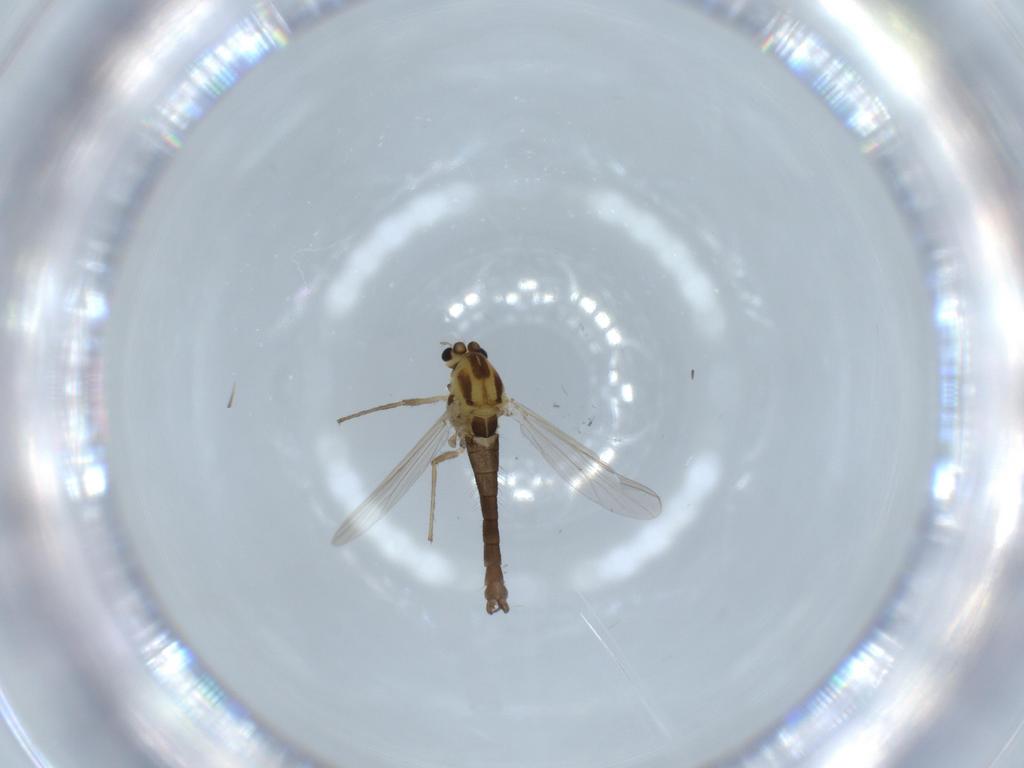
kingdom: Animalia
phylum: Arthropoda
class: Insecta
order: Diptera
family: Chironomidae
